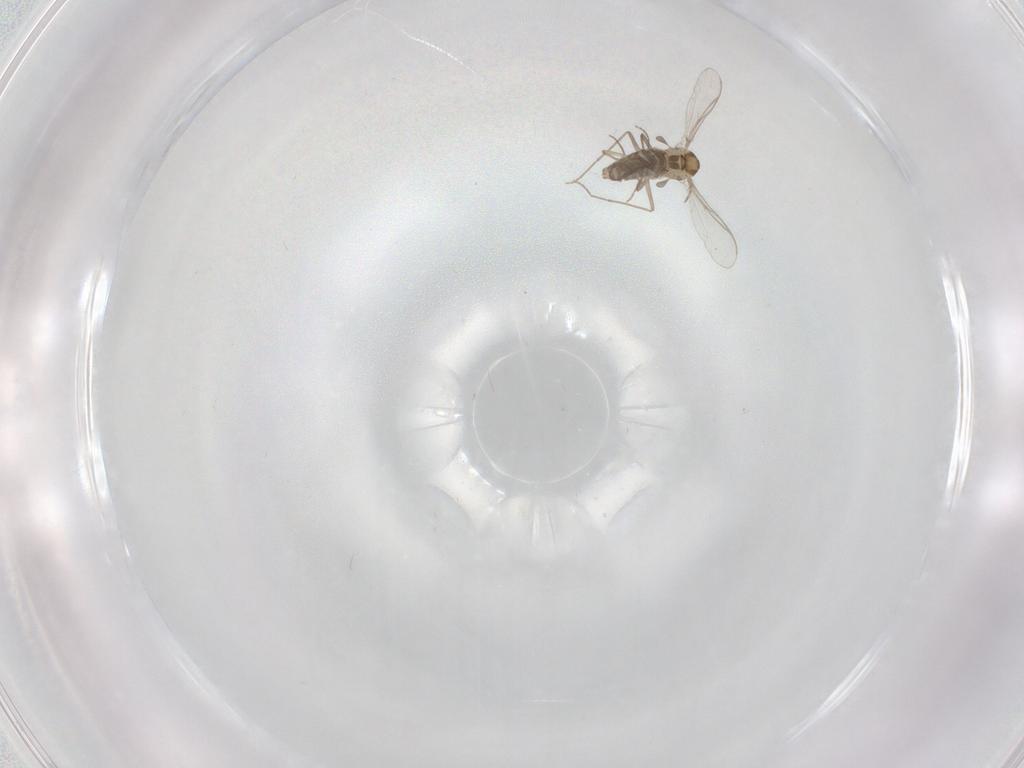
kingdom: Animalia
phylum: Arthropoda
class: Insecta
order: Diptera
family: Chironomidae
